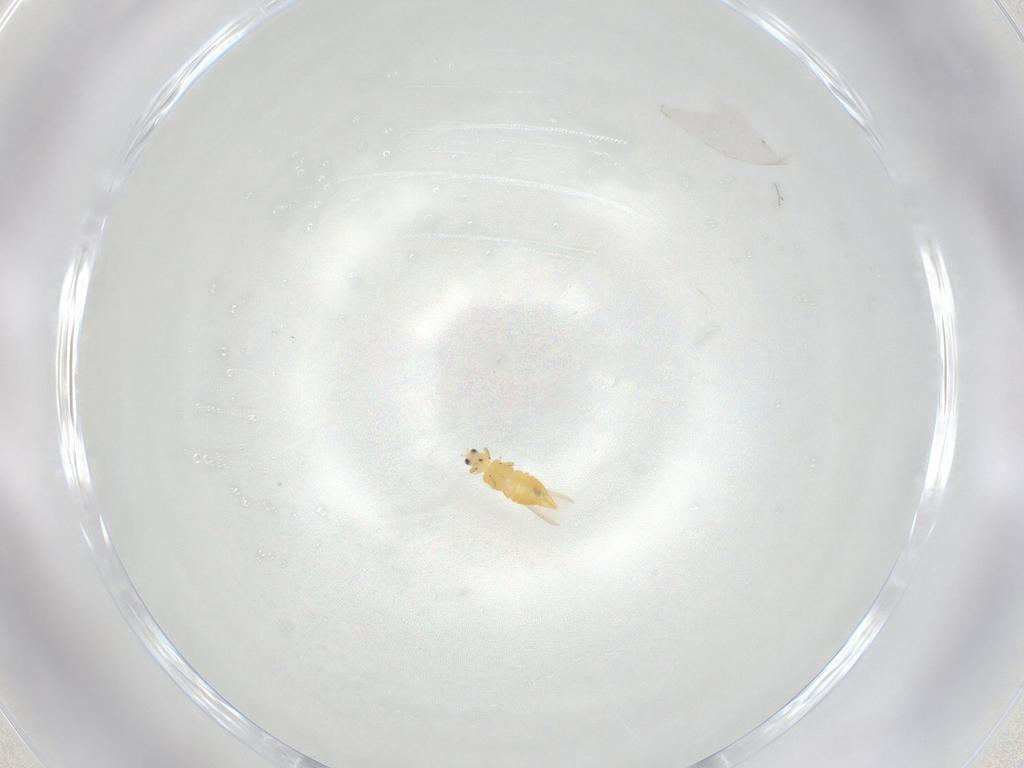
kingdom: Animalia
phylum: Arthropoda
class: Insecta
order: Thysanoptera
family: Thripidae
